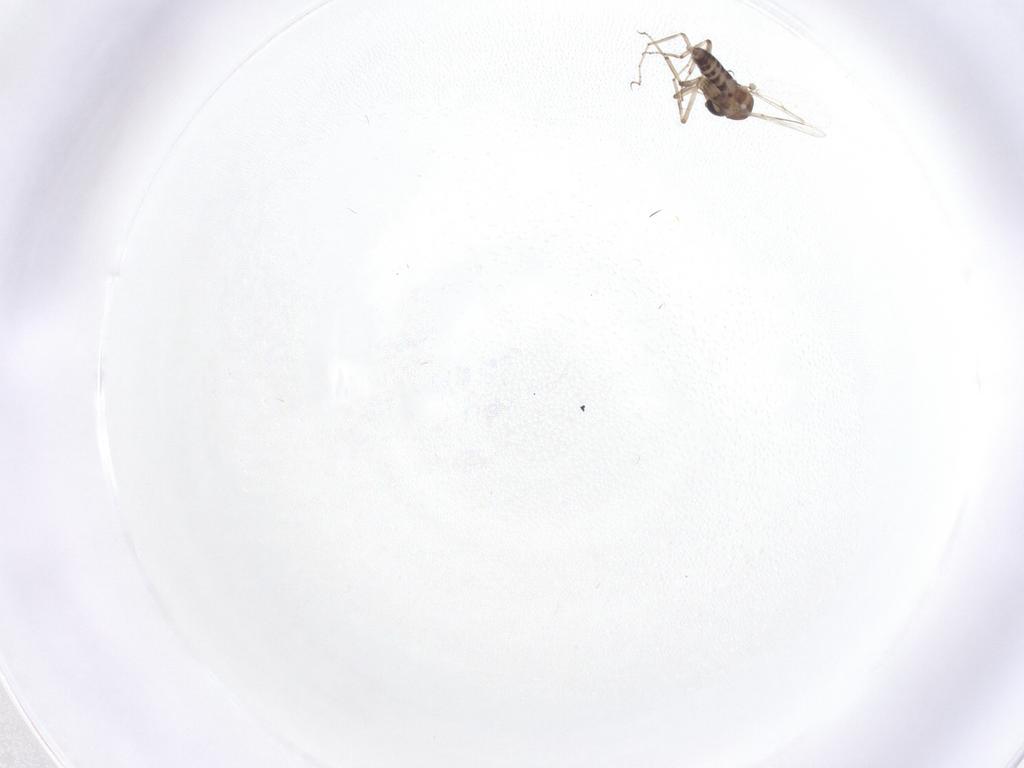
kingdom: Animalia
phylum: Arthropoda
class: Insecta
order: Diptera
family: Ceratopogonidae
